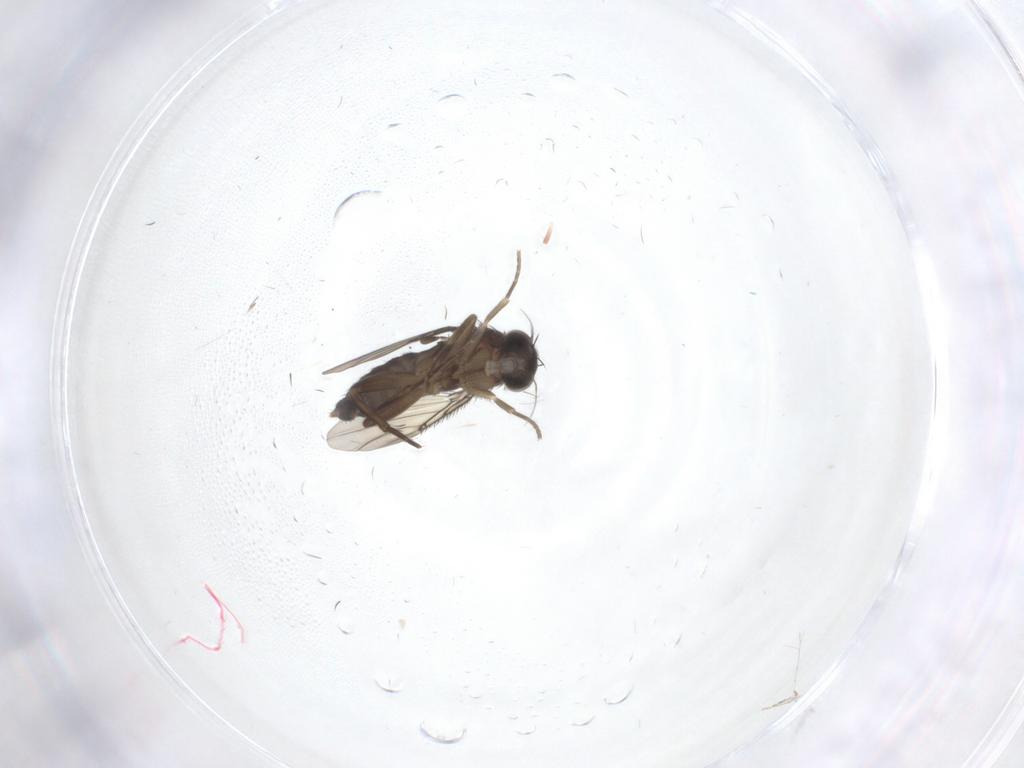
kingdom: Animalia
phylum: Arthropoda
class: Insecta
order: Diptera
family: Phoridae
